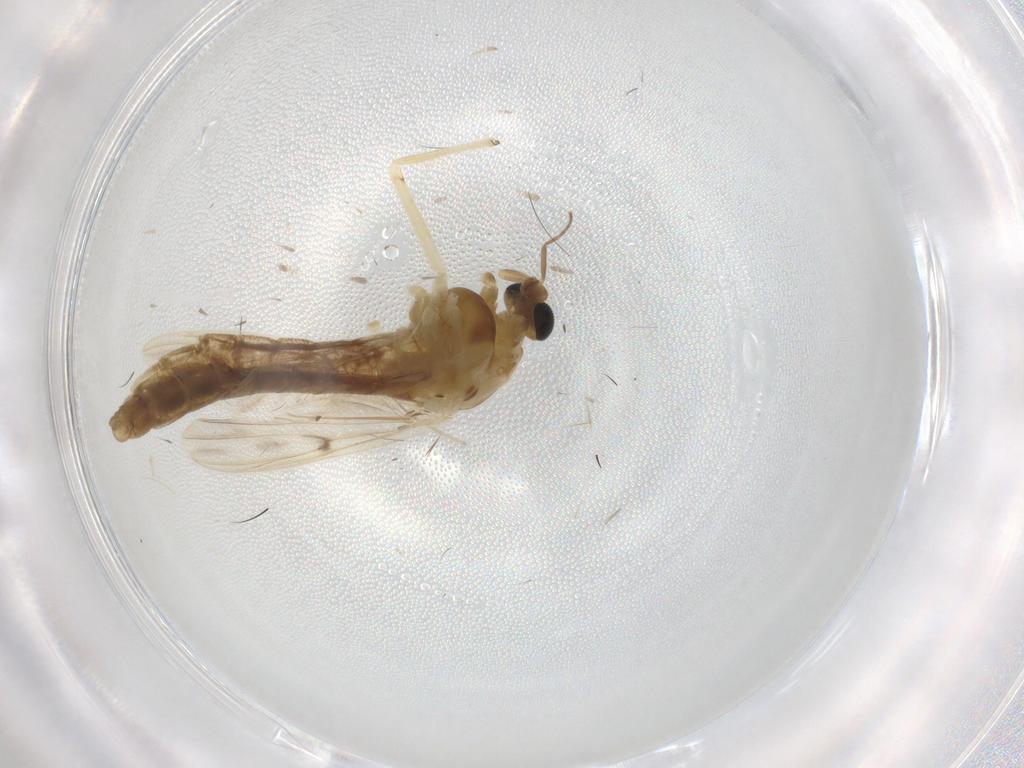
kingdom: Animalia
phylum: Arthropoda
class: Insecta
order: Diptera
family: Chironomidae
